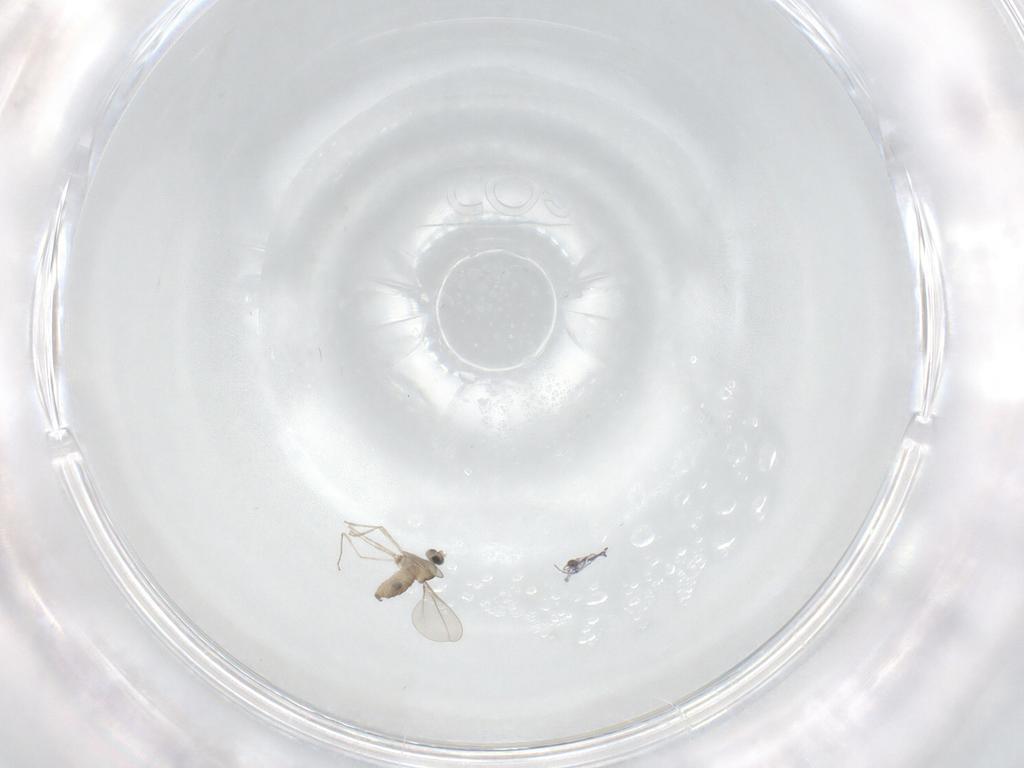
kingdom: Animalia
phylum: Arthropoda
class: Insecta
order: Diptera
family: Cecidomyiidae
